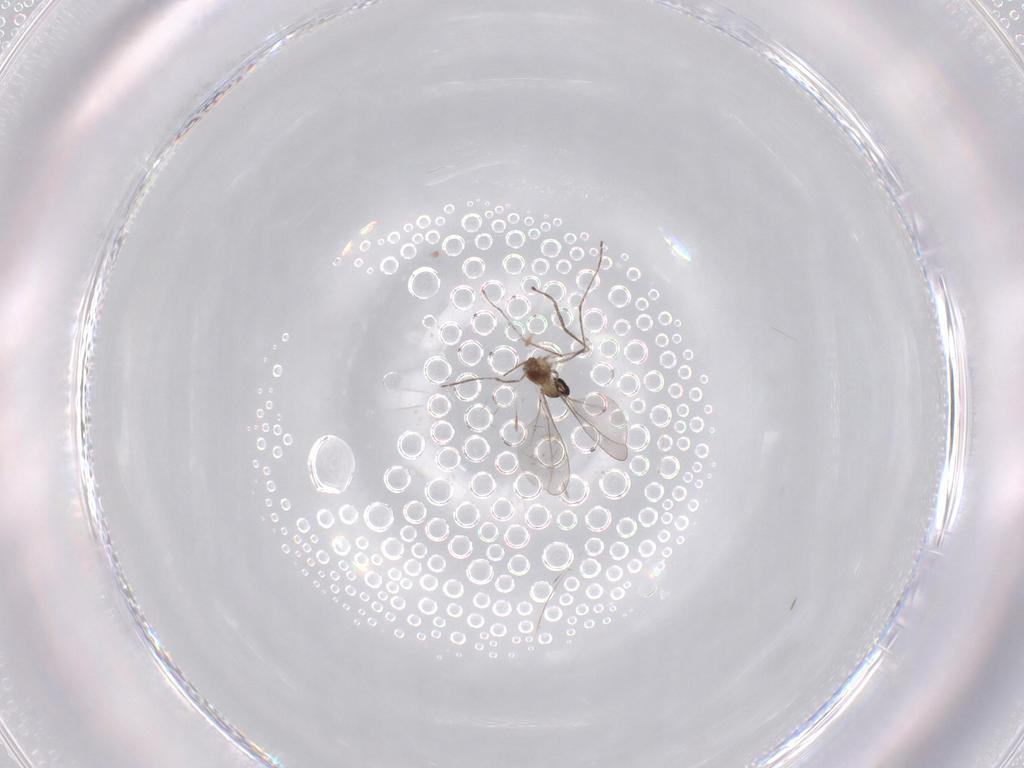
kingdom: Animalia
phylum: Arthropoda
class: Insecta
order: Diptera
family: Cecidomyiidae
